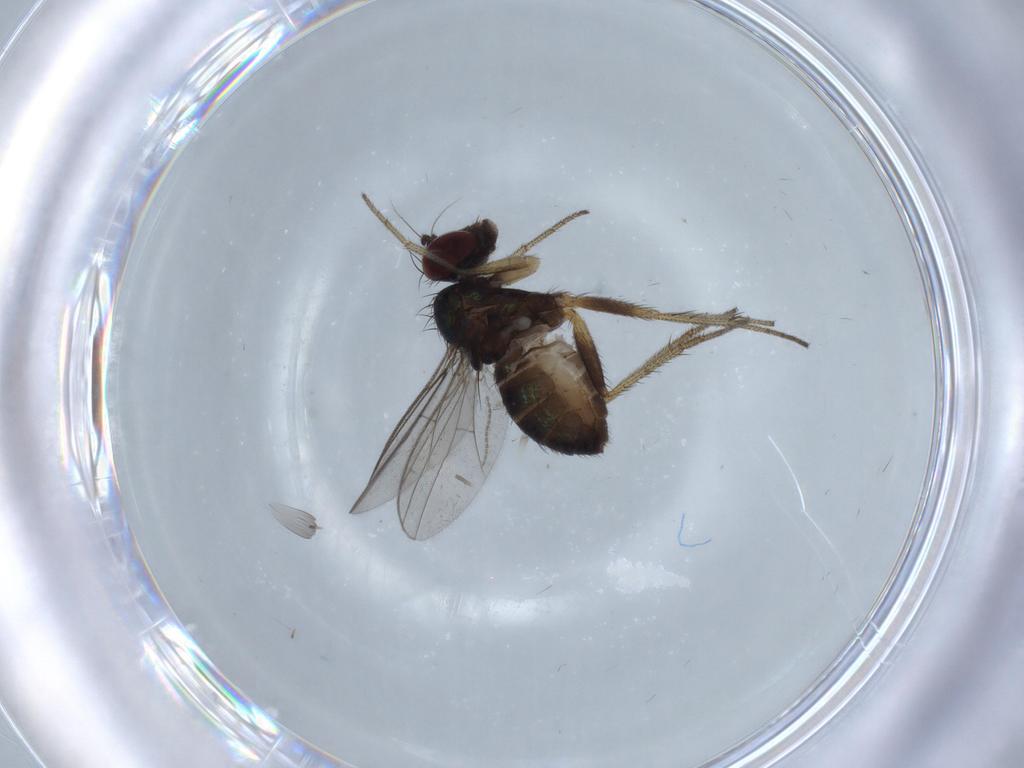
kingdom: Animalia
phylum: Arthropoda
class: Insecta
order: Diptera
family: Dolichopodidae
